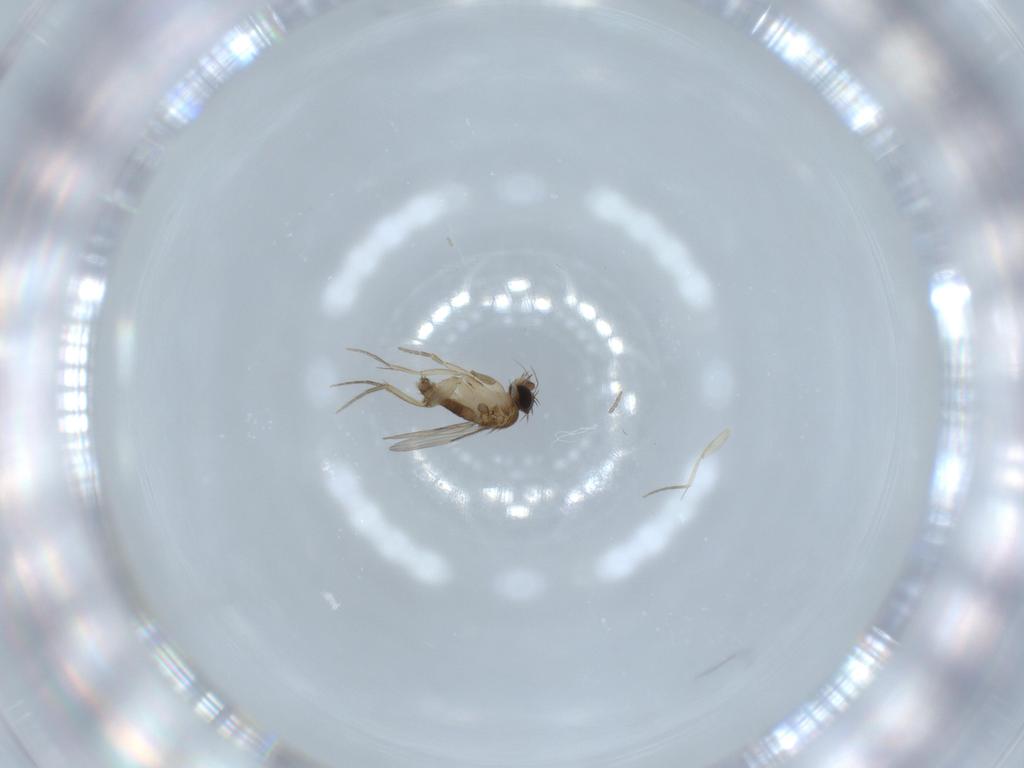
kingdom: Animalia
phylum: Arthropoda
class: Insecta
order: Diptera
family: Phoridae
